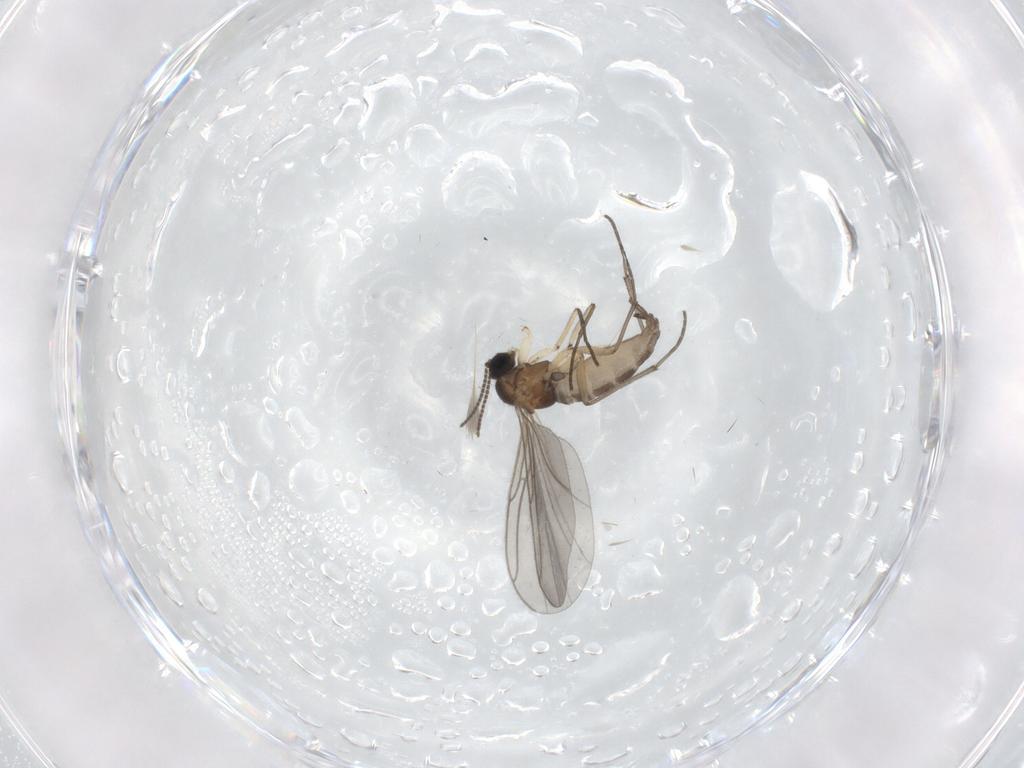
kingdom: Animalia
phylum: Arthropoda
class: Insecta
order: Diptera
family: Sciaridae
